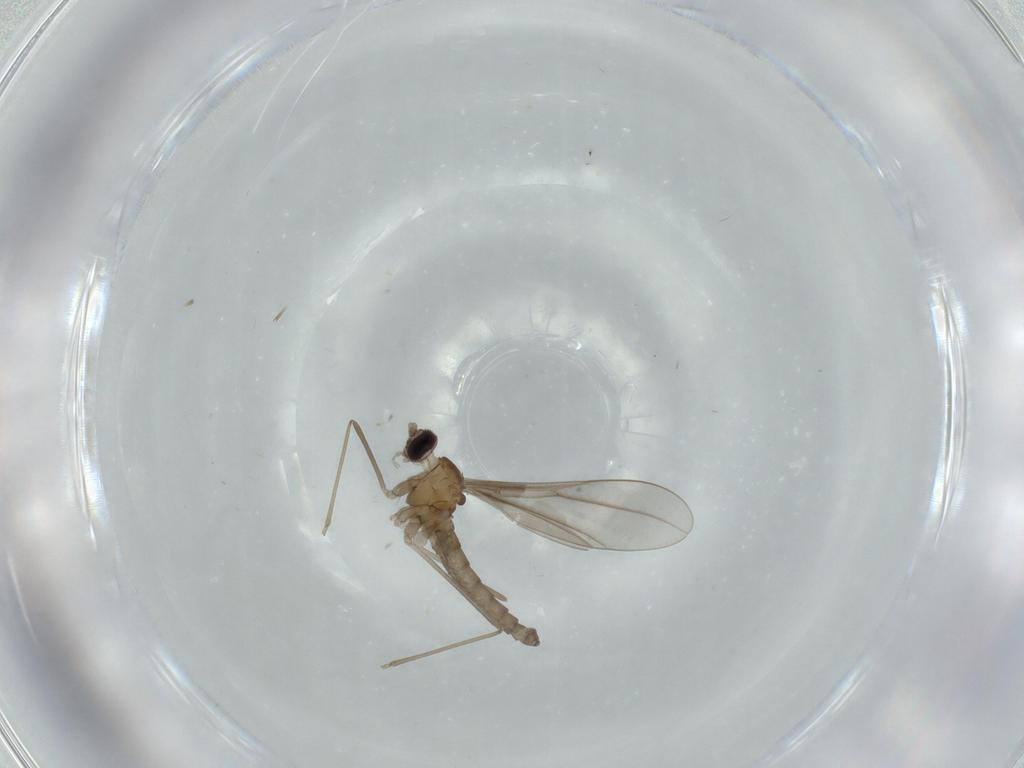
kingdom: Animalia
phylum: Arthropoda
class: Insecta
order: Diptera
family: Cecidomyiidae
